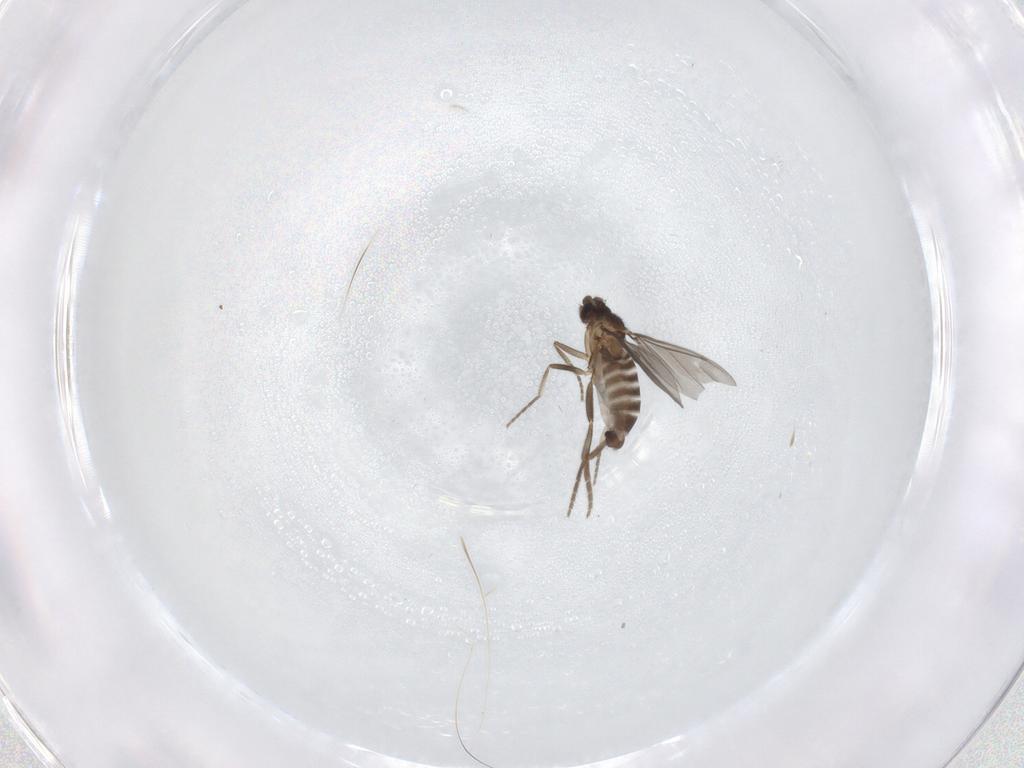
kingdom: Animalia
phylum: Arthropoda
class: Insecta
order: Diptera
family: Phoridae
